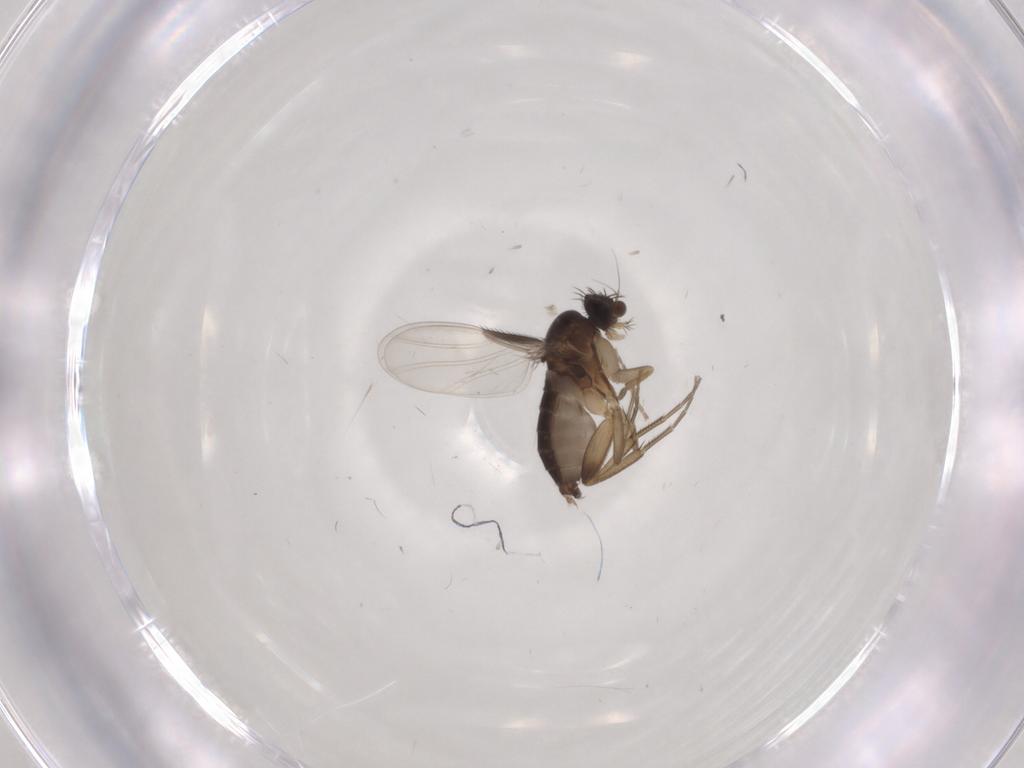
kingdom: Animalia
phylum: Arthropoda
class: Insecta
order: Diptera
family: Phoridae
